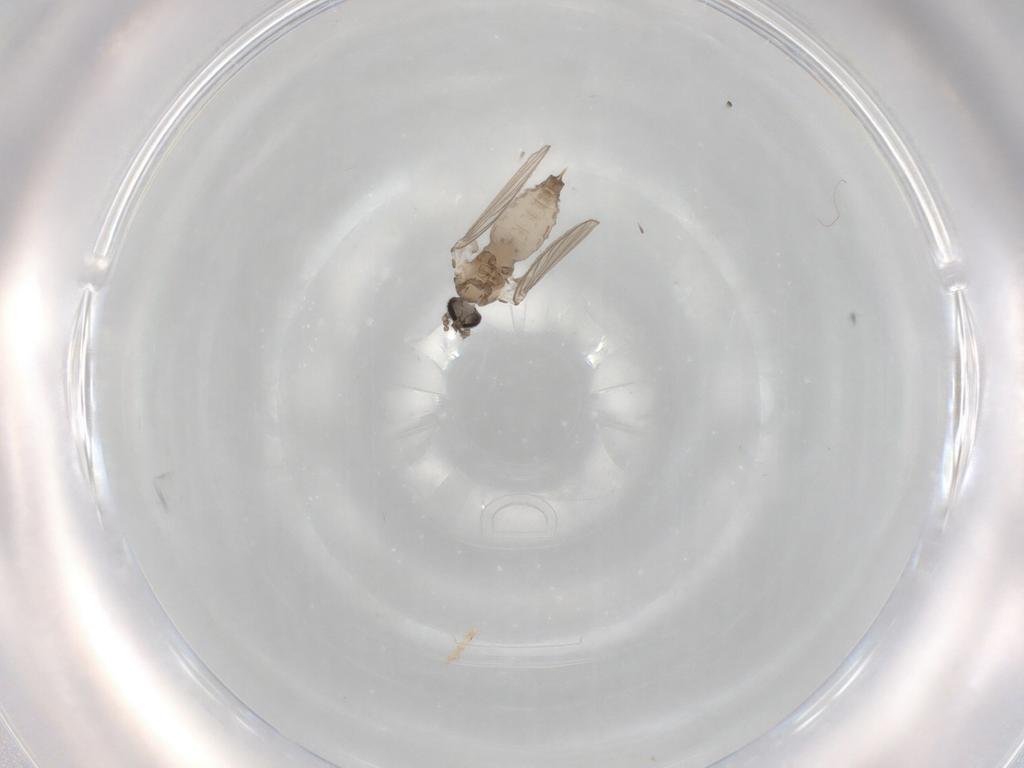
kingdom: Animalia
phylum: Arthropoda
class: Insecta
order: Diptera
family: Psychodidae
